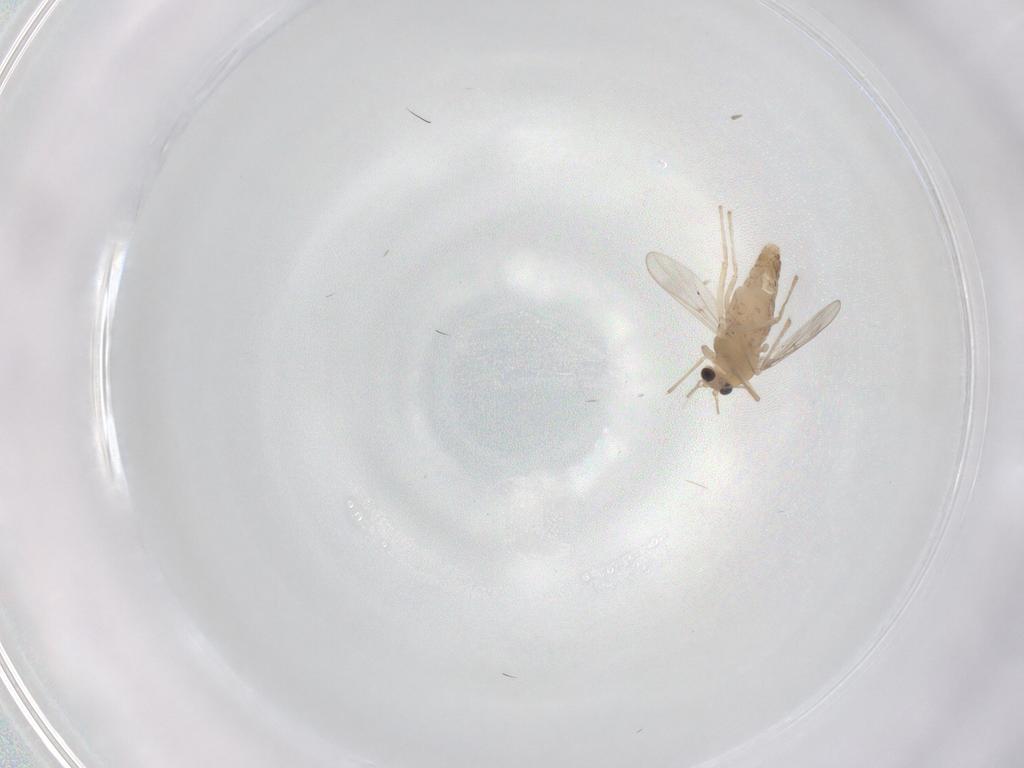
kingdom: Animalia
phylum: Arthropoda
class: Insecta
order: Diptera
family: Chironomidae
